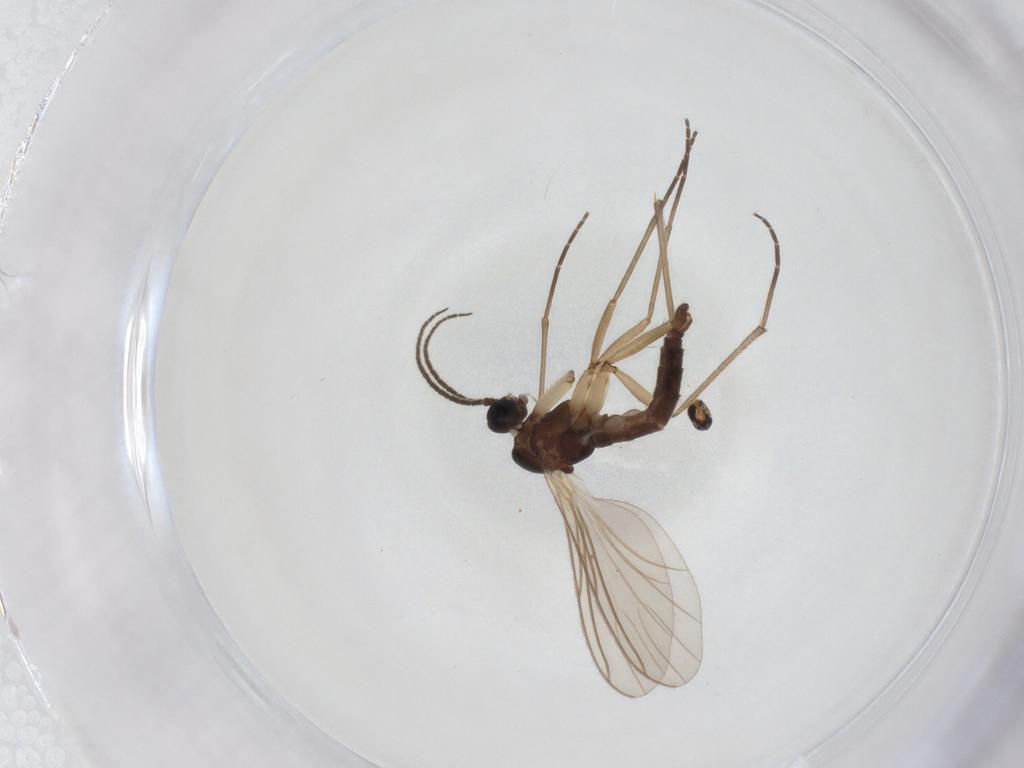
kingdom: Animalia
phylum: Arthropoda
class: Insecta
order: Diptera
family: Cecidomyiidae
